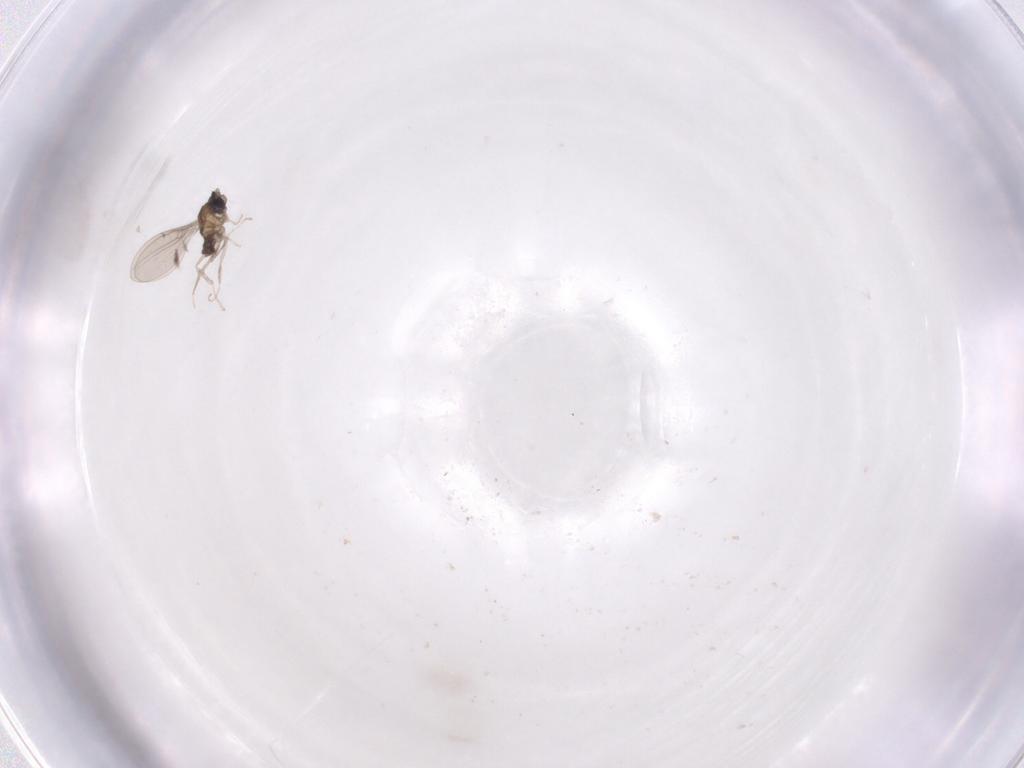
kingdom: Animalia
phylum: Arthropoda
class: Insecta
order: Diptera
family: Cecidomyiidae
